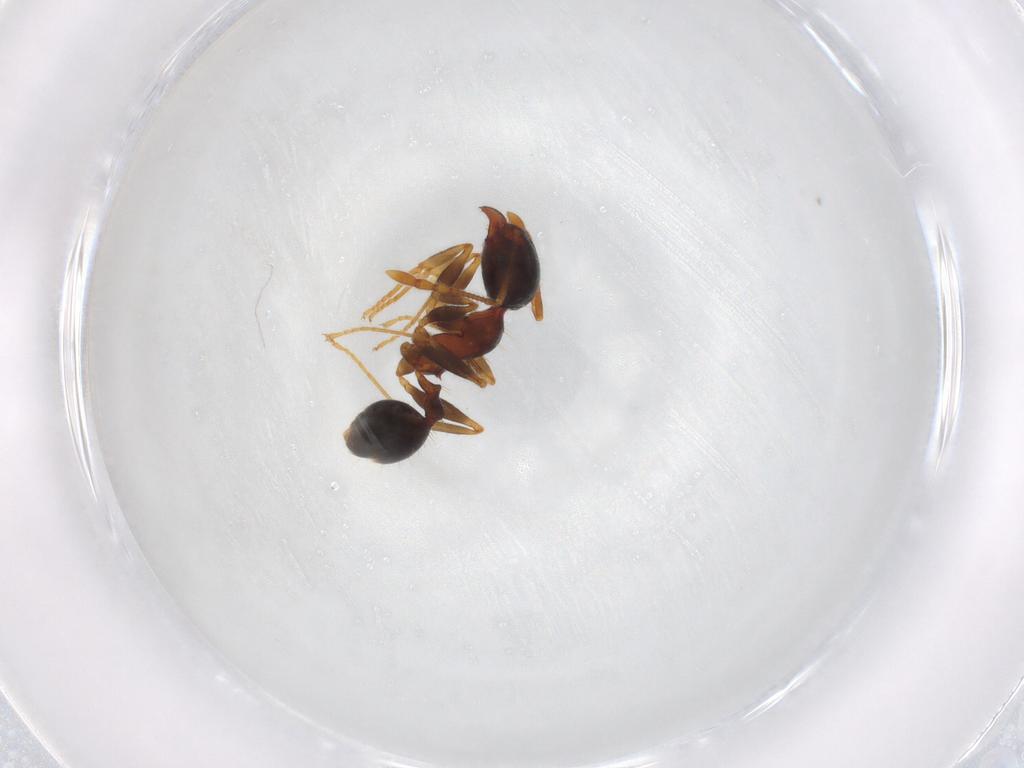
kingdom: Animalia
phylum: Arthropoda
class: Insecta
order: Hymenoptera
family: Formicidae
